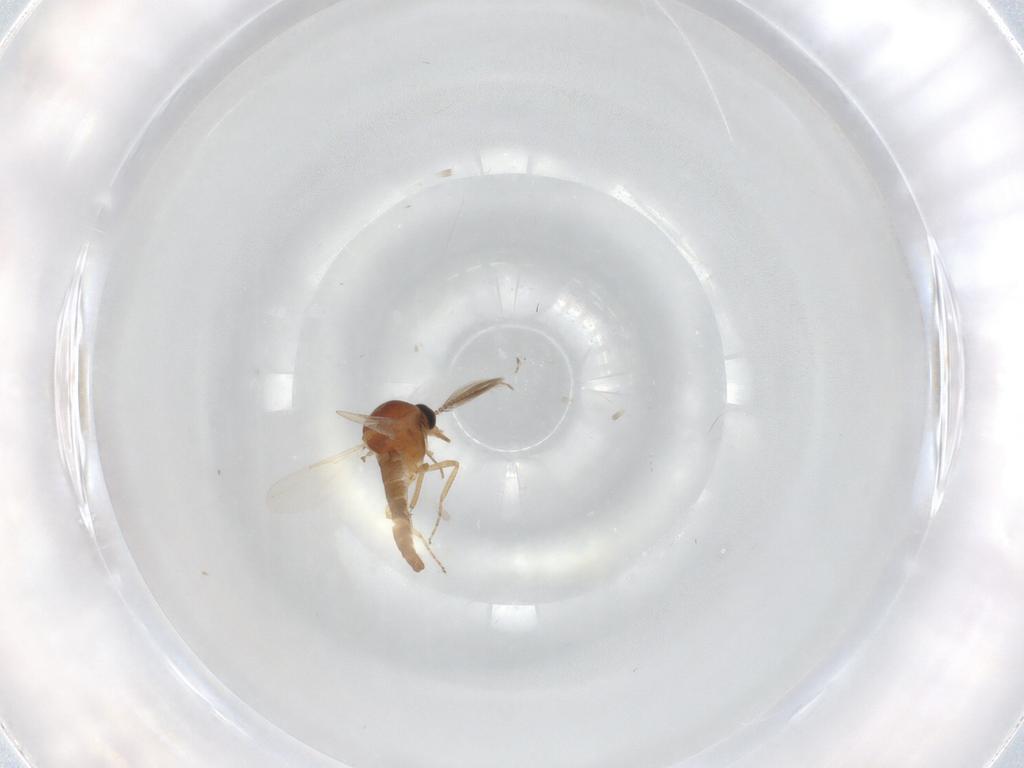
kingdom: Animalia
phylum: Arthropoda
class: Insecta
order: Diptera
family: Ceratopogonidae
